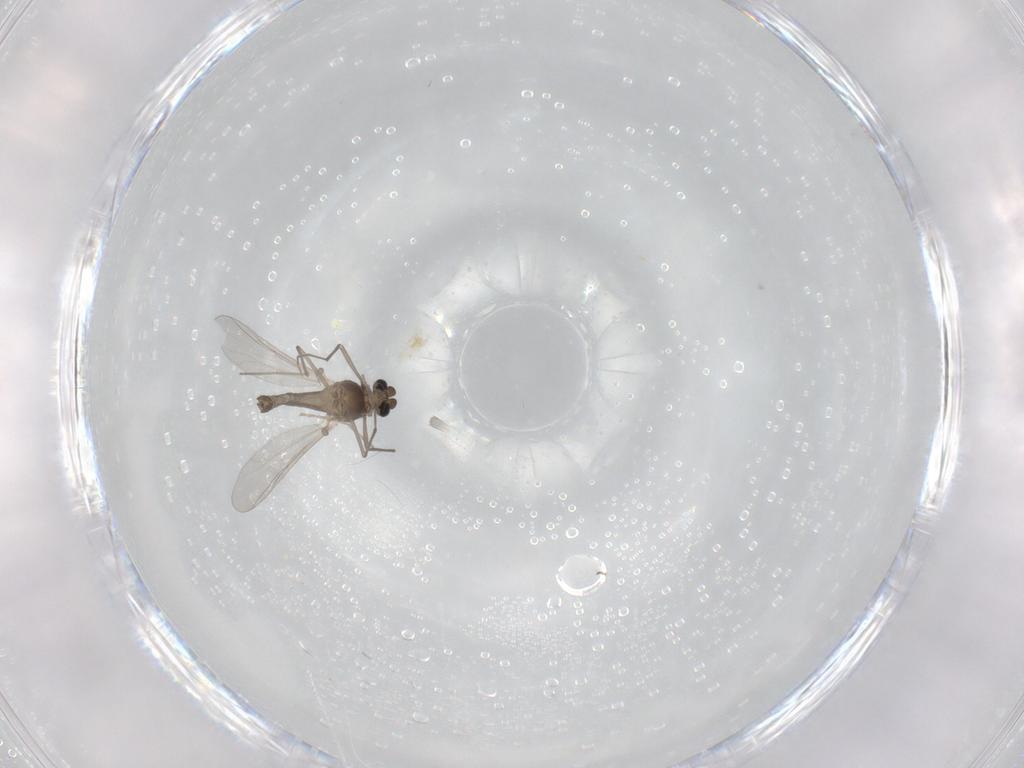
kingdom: Animalia
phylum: Arthropoda
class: Insecta
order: Diptera
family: Chironomidae
